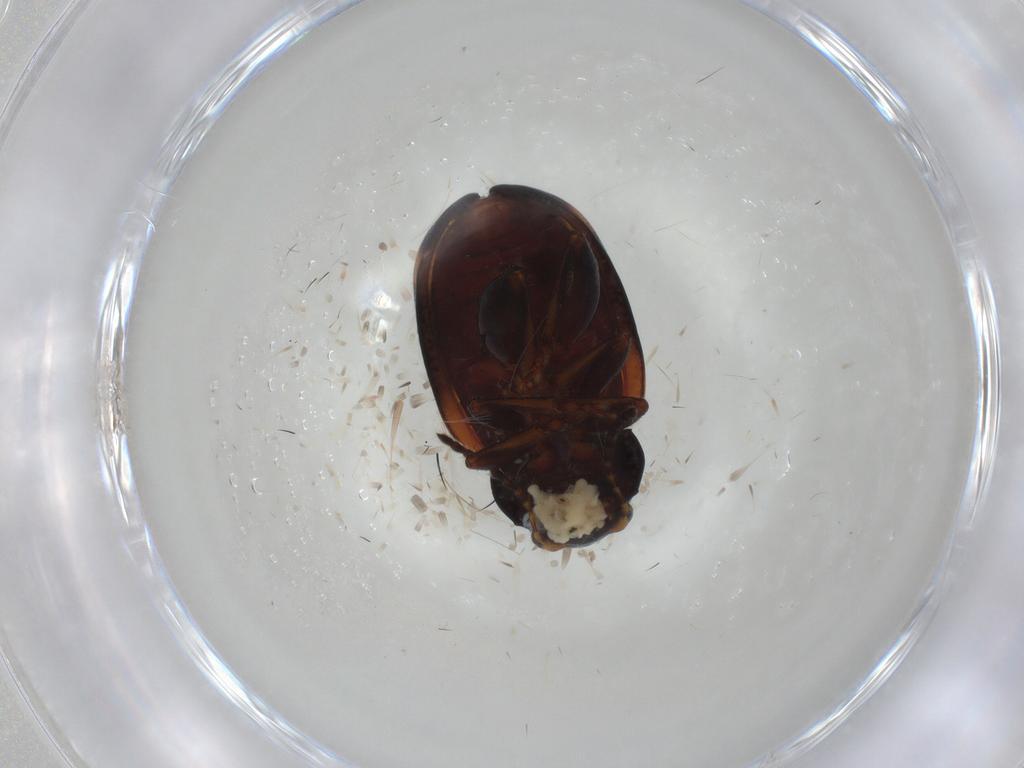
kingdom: Animalia
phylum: Arthropoda
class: Insecta
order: Coleoptera
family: Chrysomelidae
